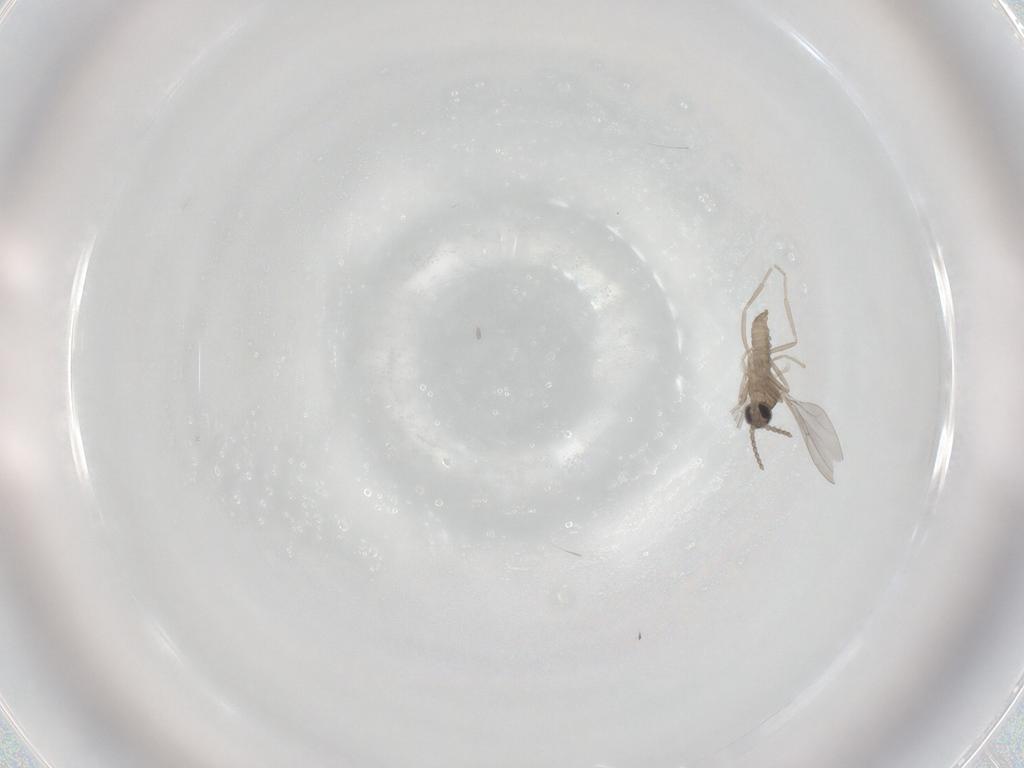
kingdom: Animalia
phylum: Arthropoda
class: Insecta
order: Diptera
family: Cecidomyiidae
